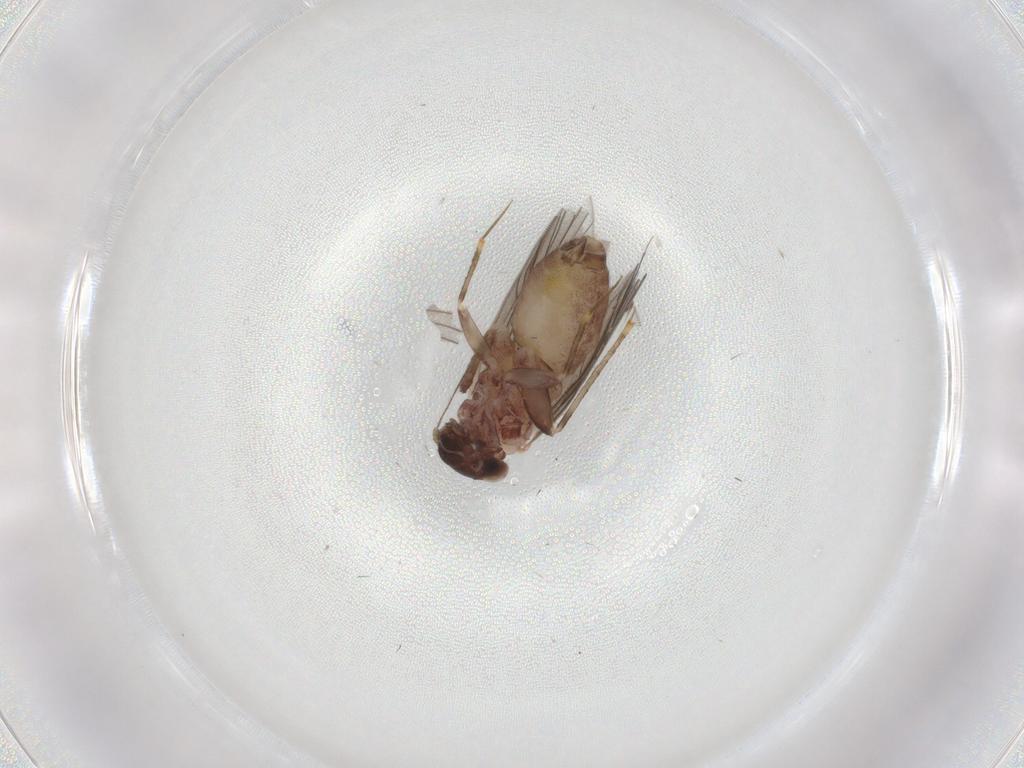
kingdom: Animalia
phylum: Arthropoda
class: Insecta
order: Psocodea
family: Lepidopsocidae
